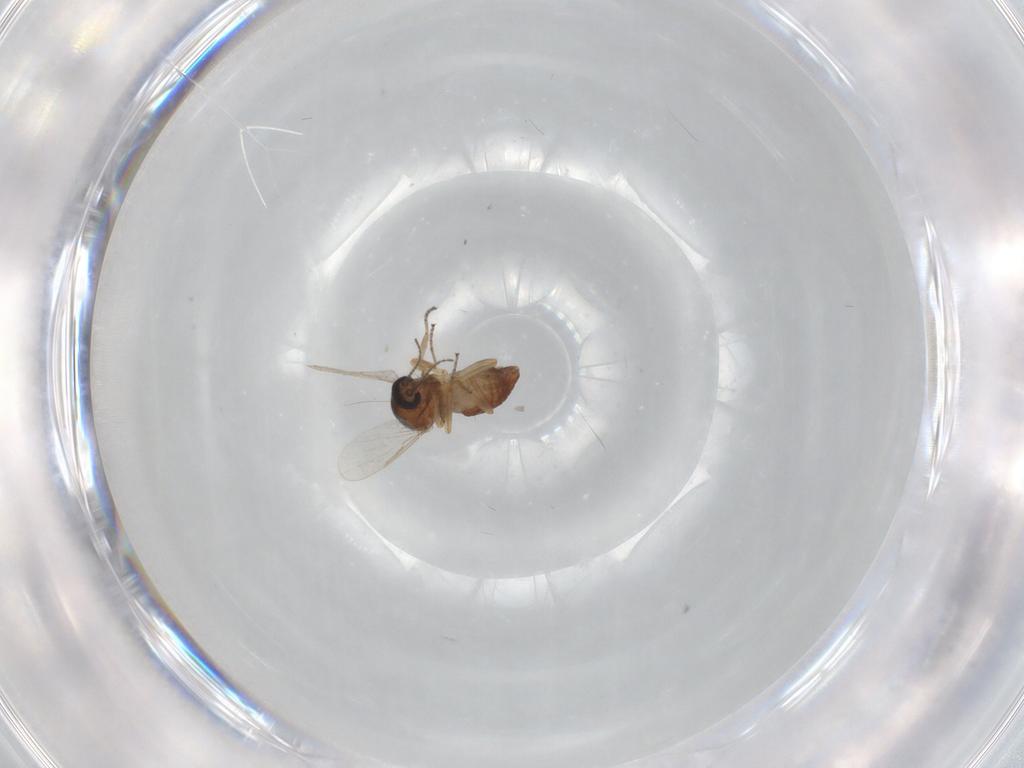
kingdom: Animalia
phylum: Arthropoda
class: Insecta
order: Diptera
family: Ceratopogonidae
